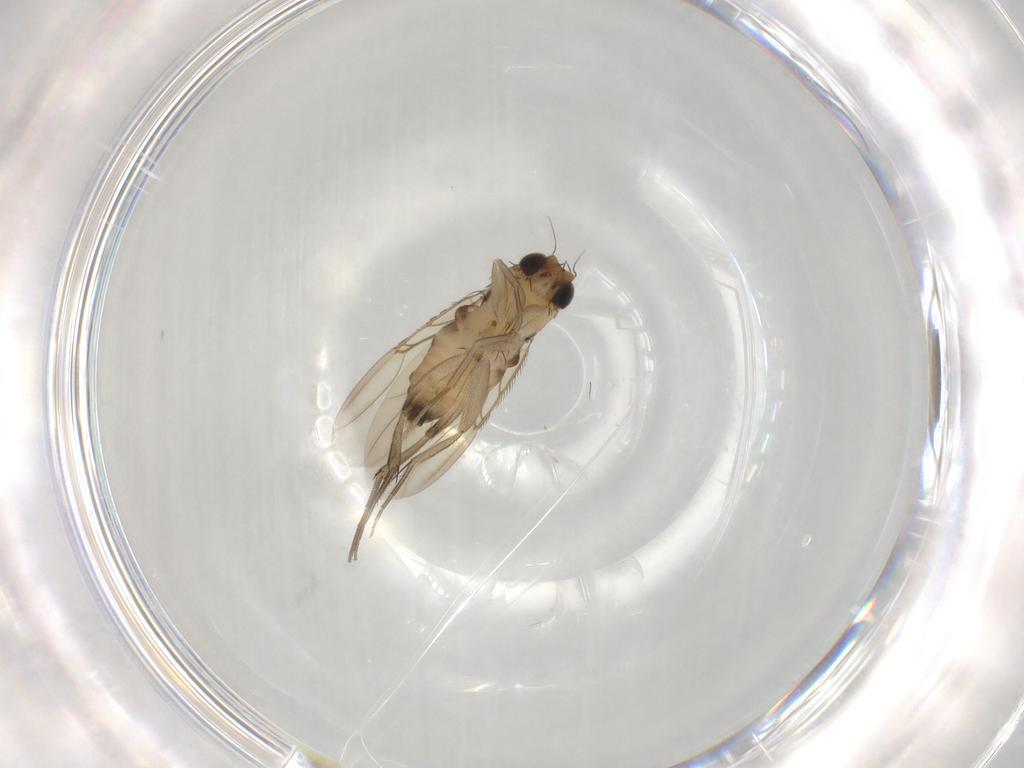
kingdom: Animalia
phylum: Arthropoda
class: Insecta
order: Diptera
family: Phoridae
